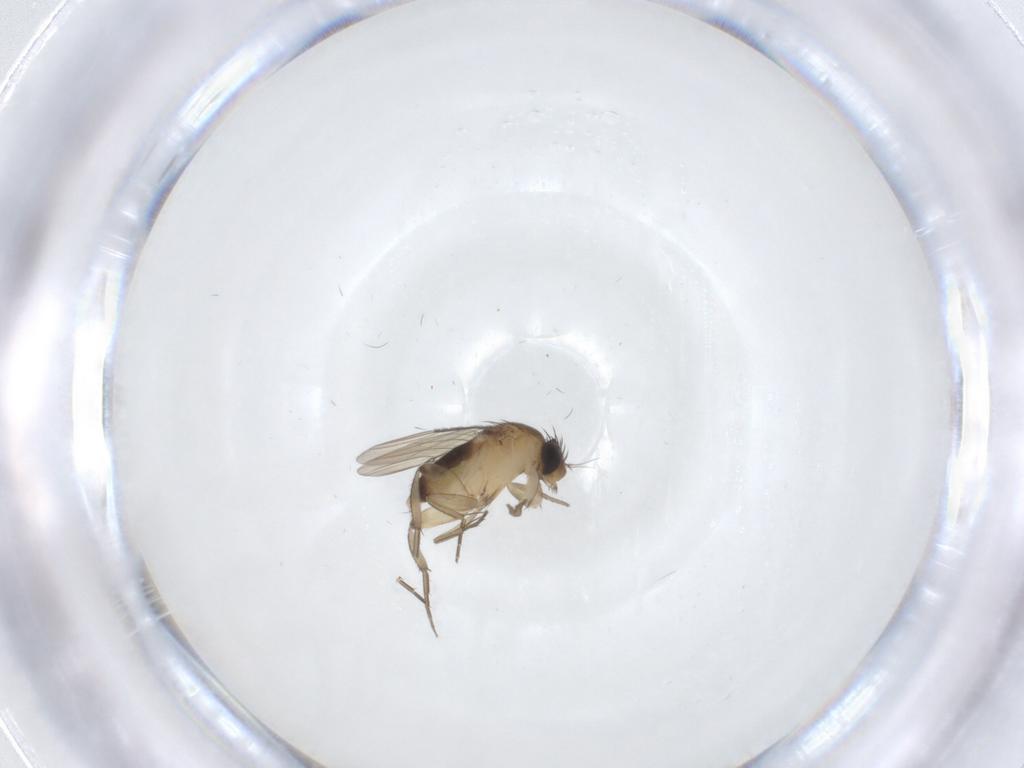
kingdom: Animalia
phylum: Arthropoda
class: Insecta
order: Diptera
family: Phoridae
